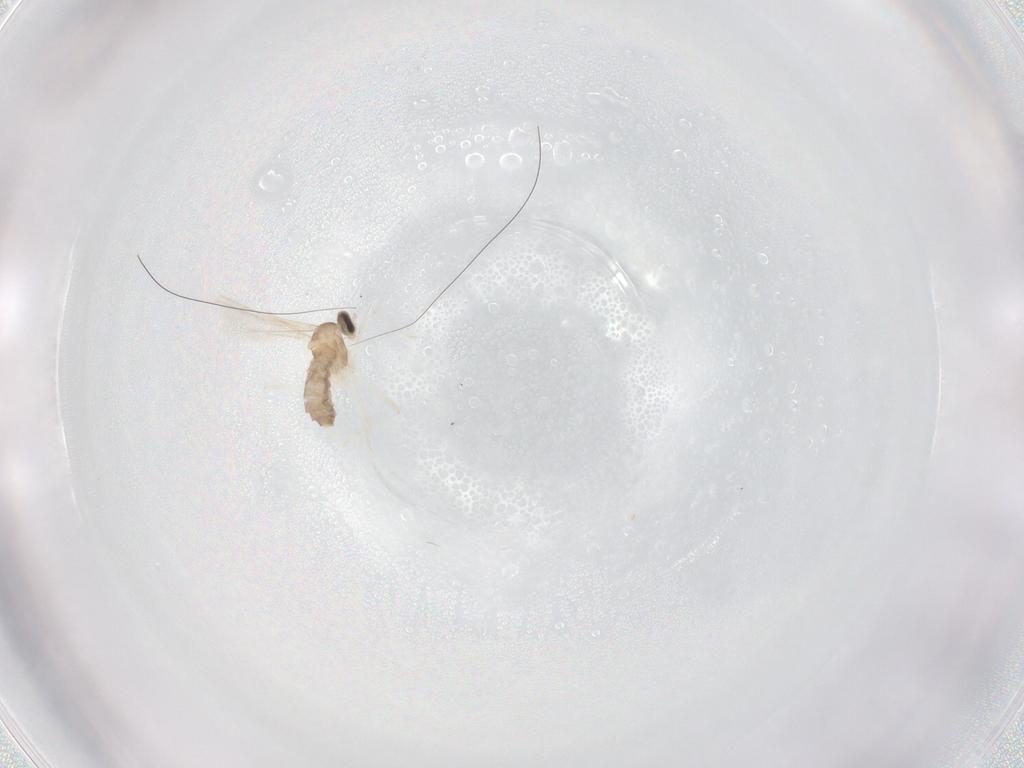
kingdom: Animalia
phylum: Arthropoda
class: Insecta
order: Diptera
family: Cecidomyiidae
